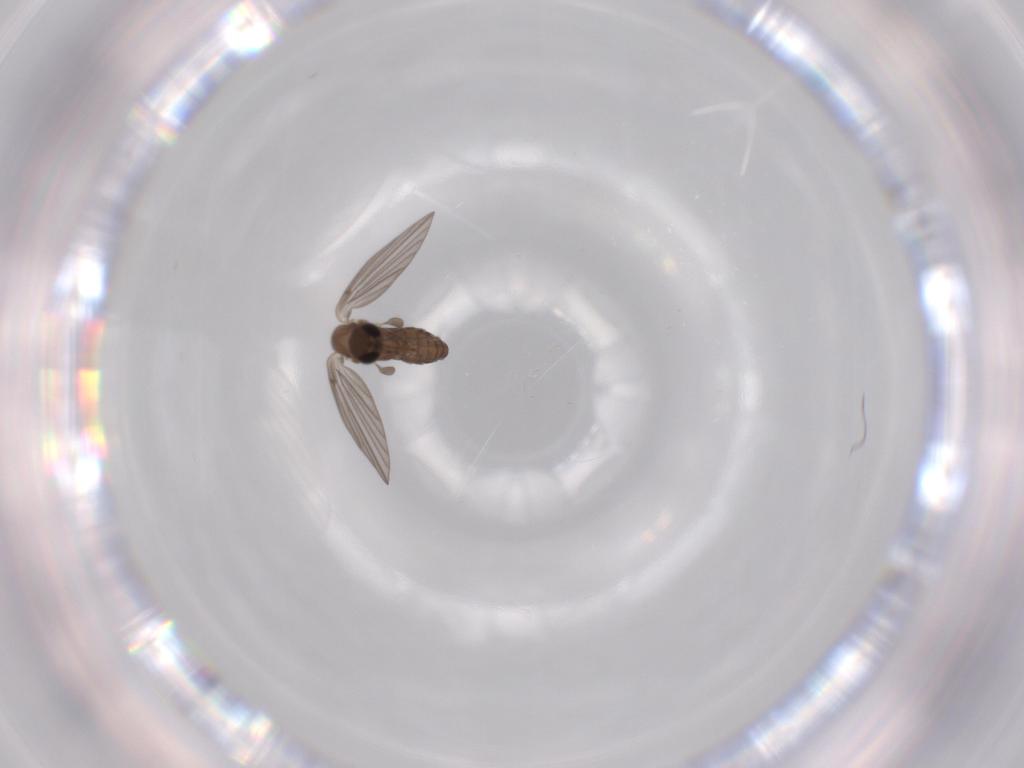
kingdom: Animalia
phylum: Arthropoda
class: Insecta
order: Diptera
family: Psychodidae
